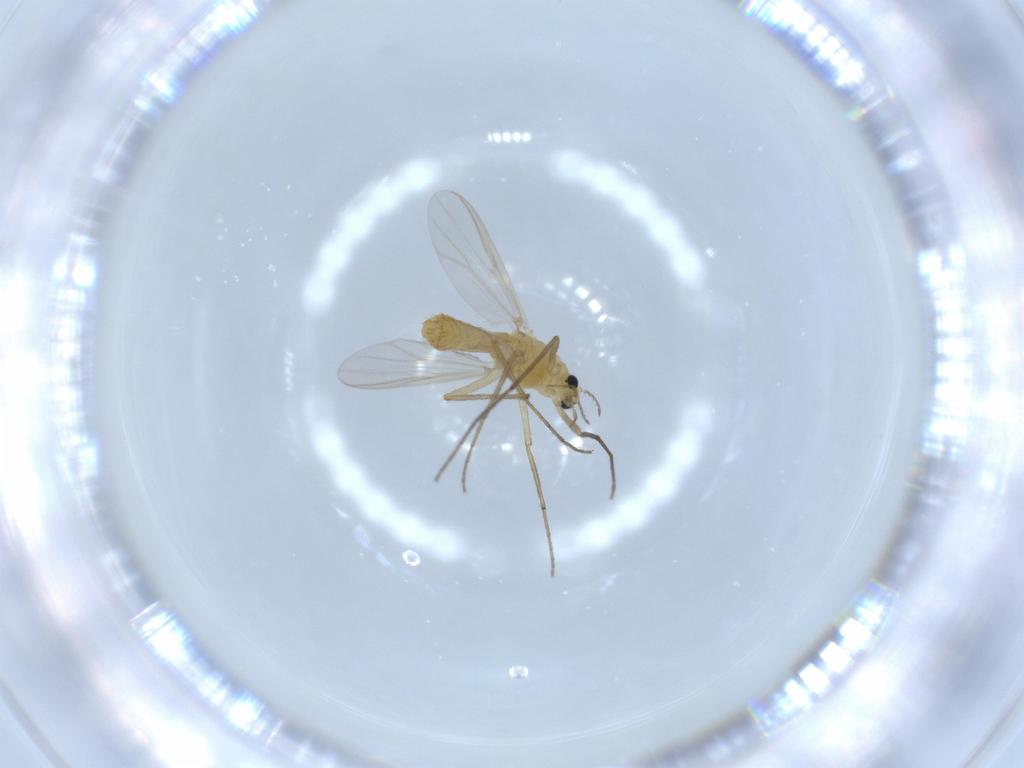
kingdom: Animalia
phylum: Arthropoda
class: Insecta
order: Diptera
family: Chironomidae
